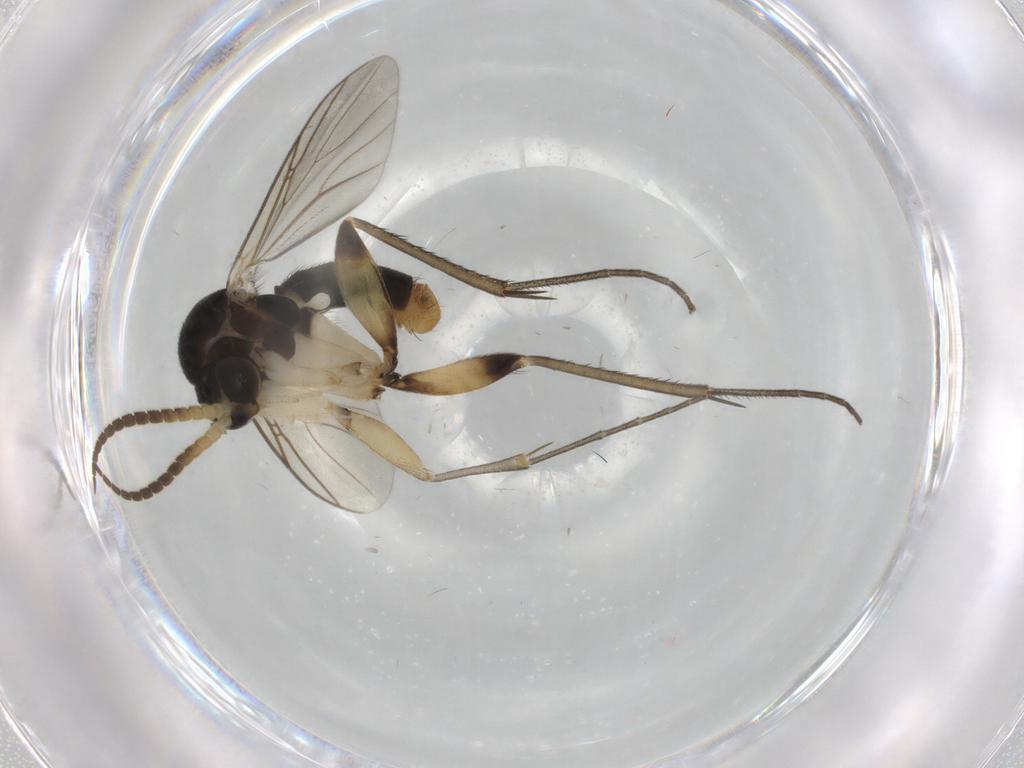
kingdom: Animalia
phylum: Arthropoda
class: Insecta
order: Diptera
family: Mycetophilidae
